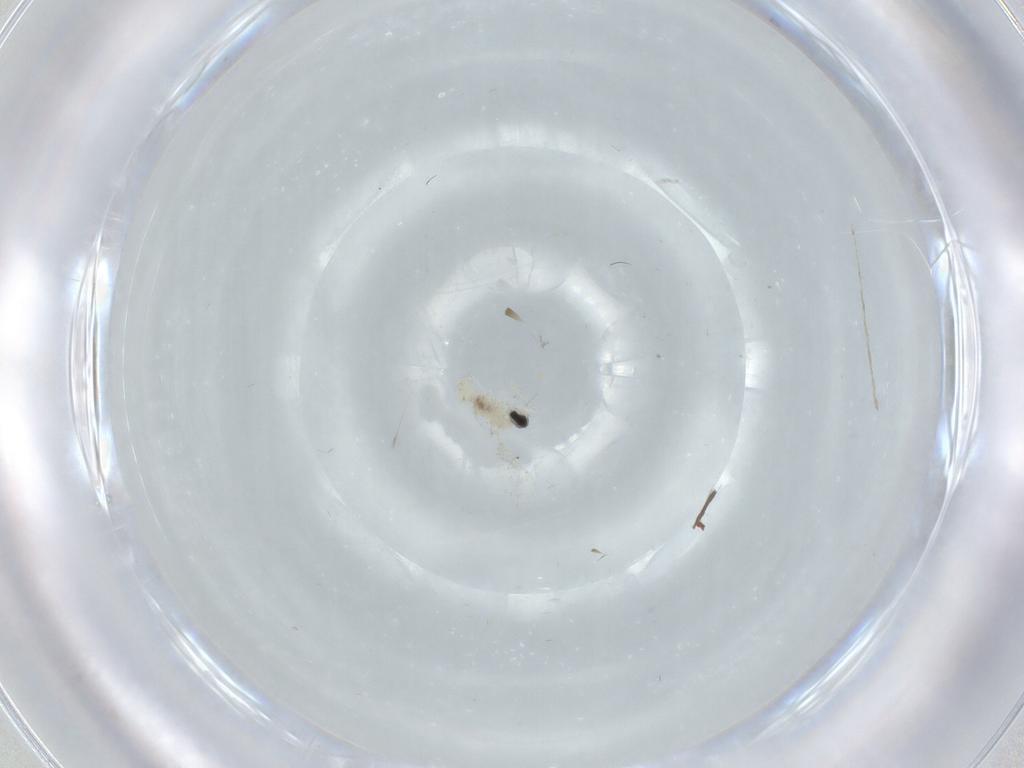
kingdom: Animalia
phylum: Arthropoda
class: Insecta
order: Diptera
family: Cecidomyiidae
